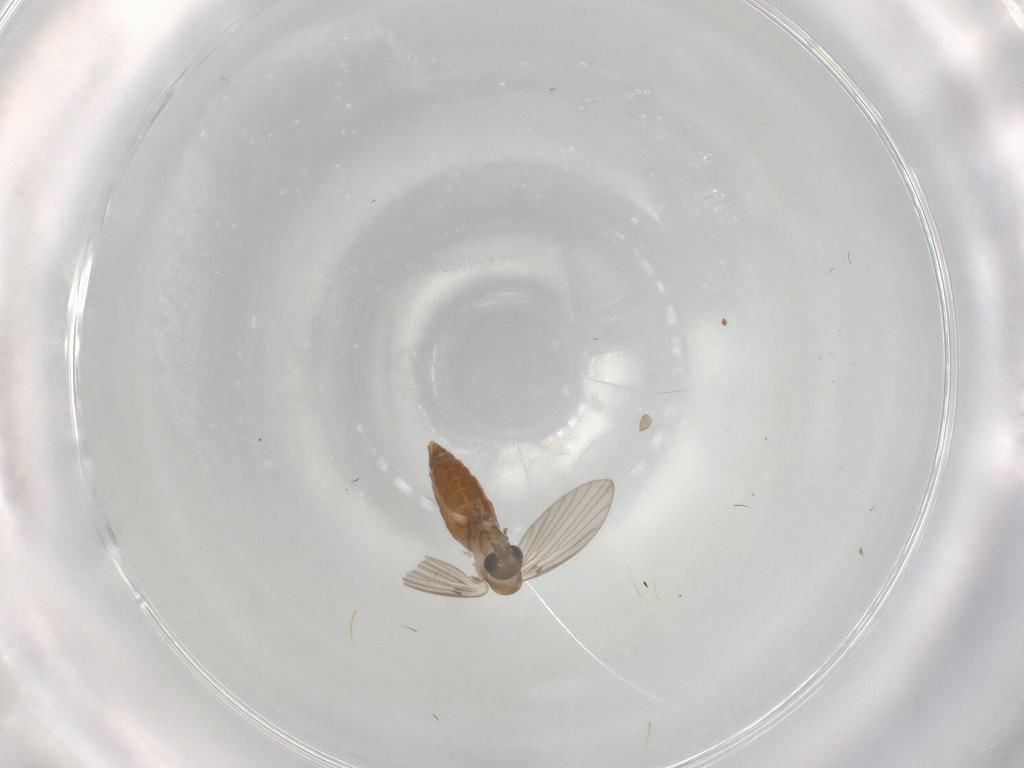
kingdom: Animalia
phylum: Arthropoda
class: Insecta
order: Diptera
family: Psychodidae
